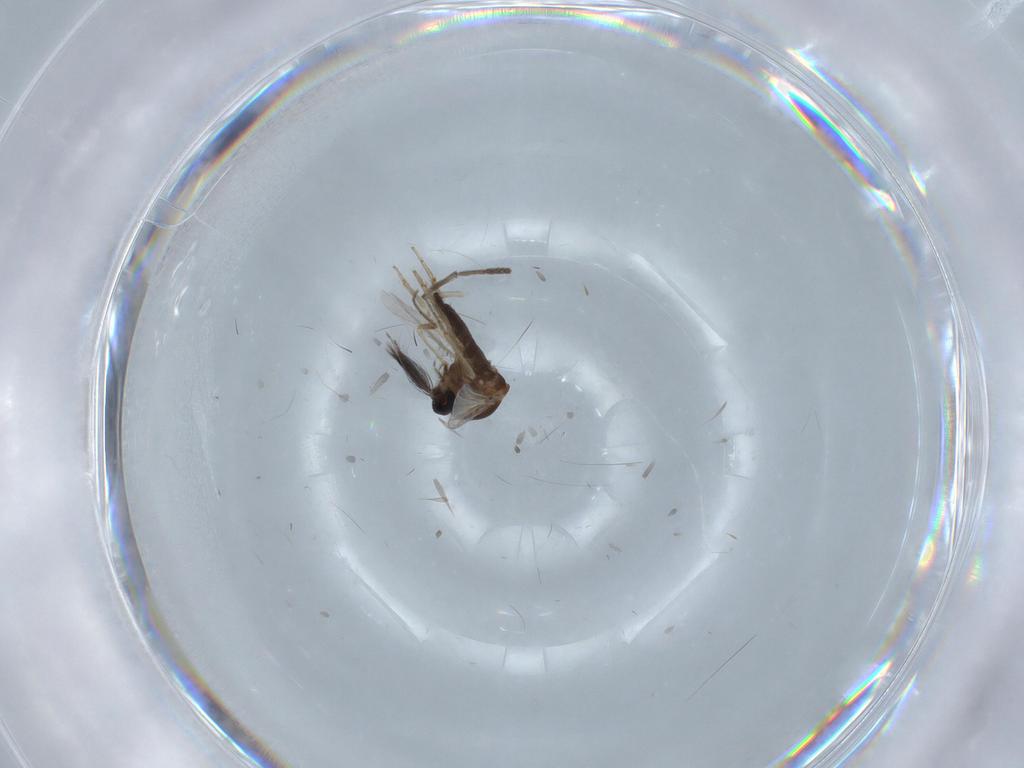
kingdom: Animalia
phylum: Arthropoda
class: Insecta
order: Diptera
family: Ceratopogonidae
